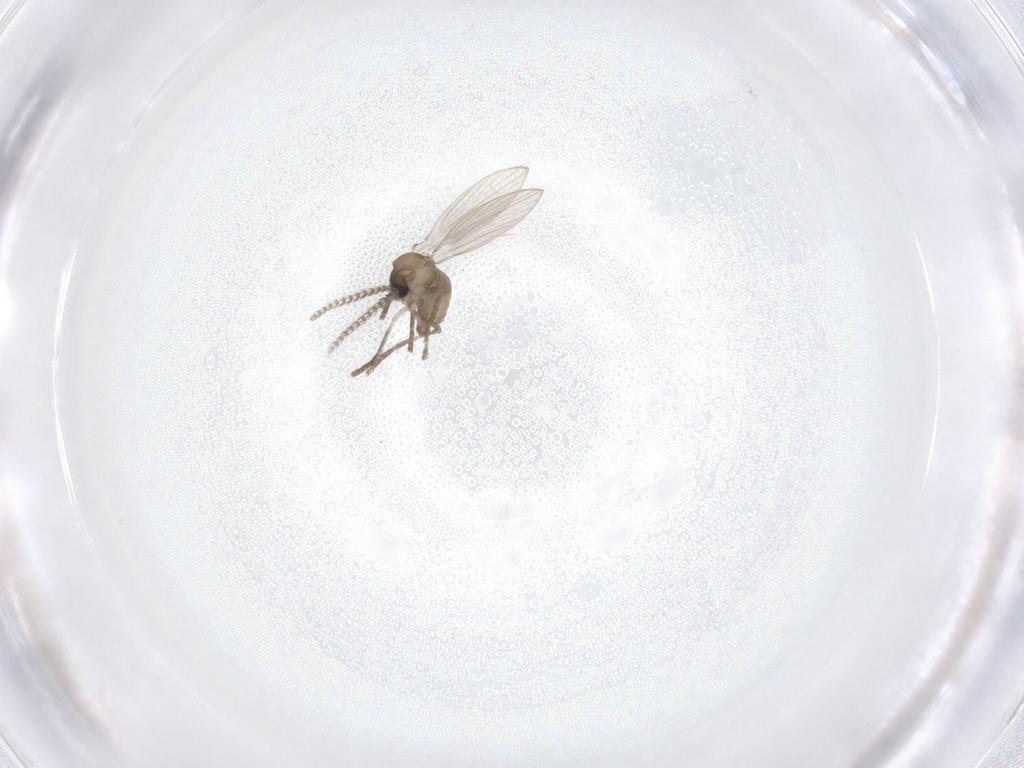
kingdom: Animalia
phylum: Arthropoda
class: Insecta
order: Diptera
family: Psychodidae
